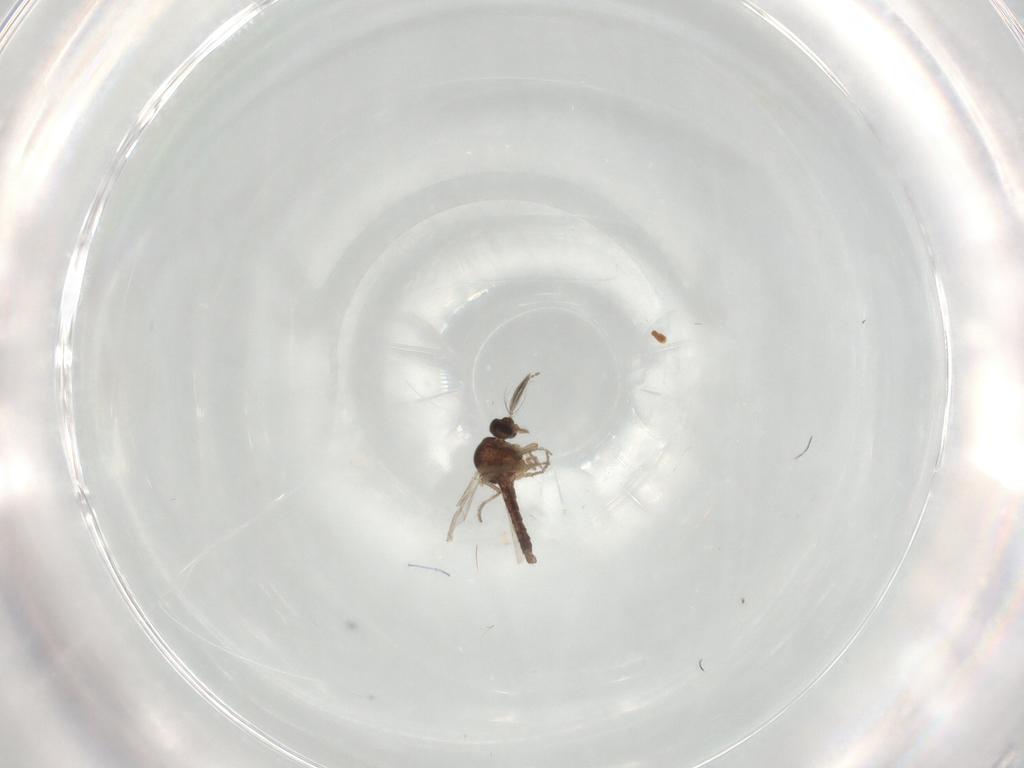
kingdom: Animalia
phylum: Arthropoda
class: Insecta
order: Diptera
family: Ceratopogonidae
